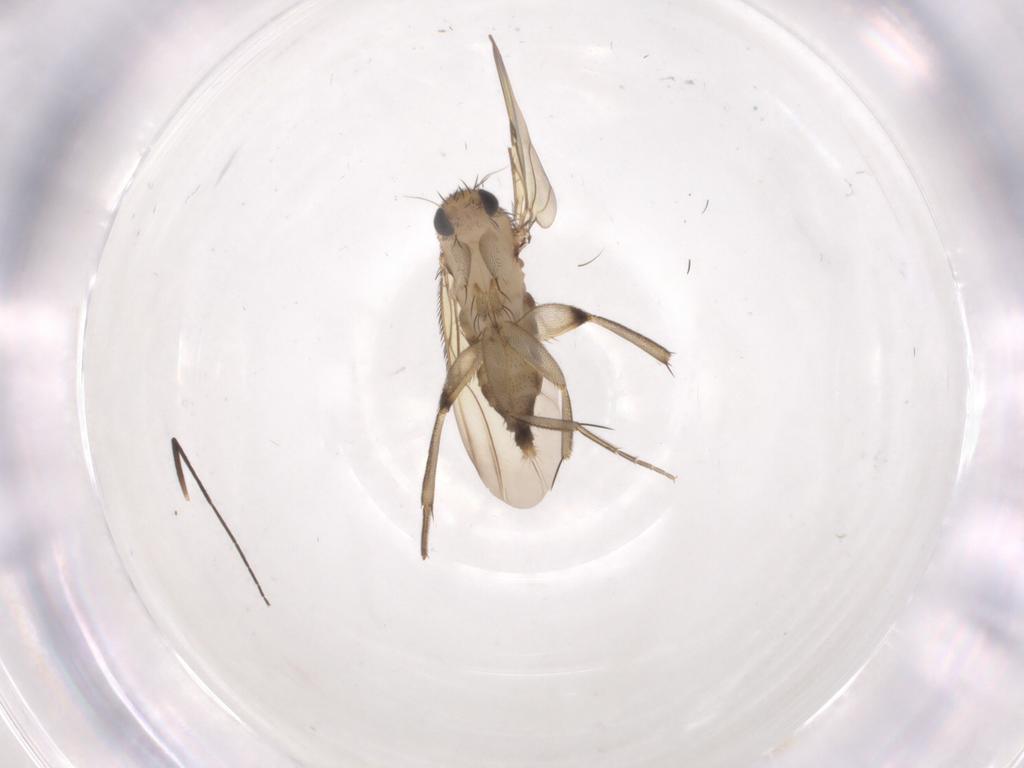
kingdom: Animalia
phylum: Arthropoda
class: Insecta
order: Diptera
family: Phoridae
